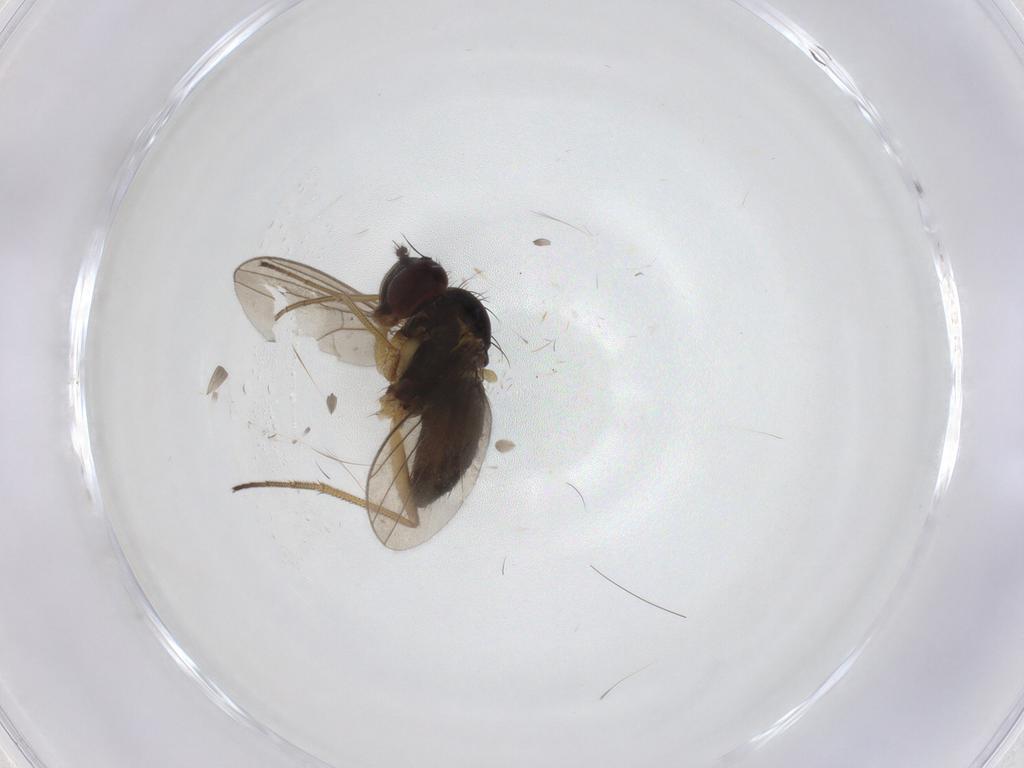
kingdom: Animalia
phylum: Arthropoda
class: Insecta
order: Diptera
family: Dolichopodidae
